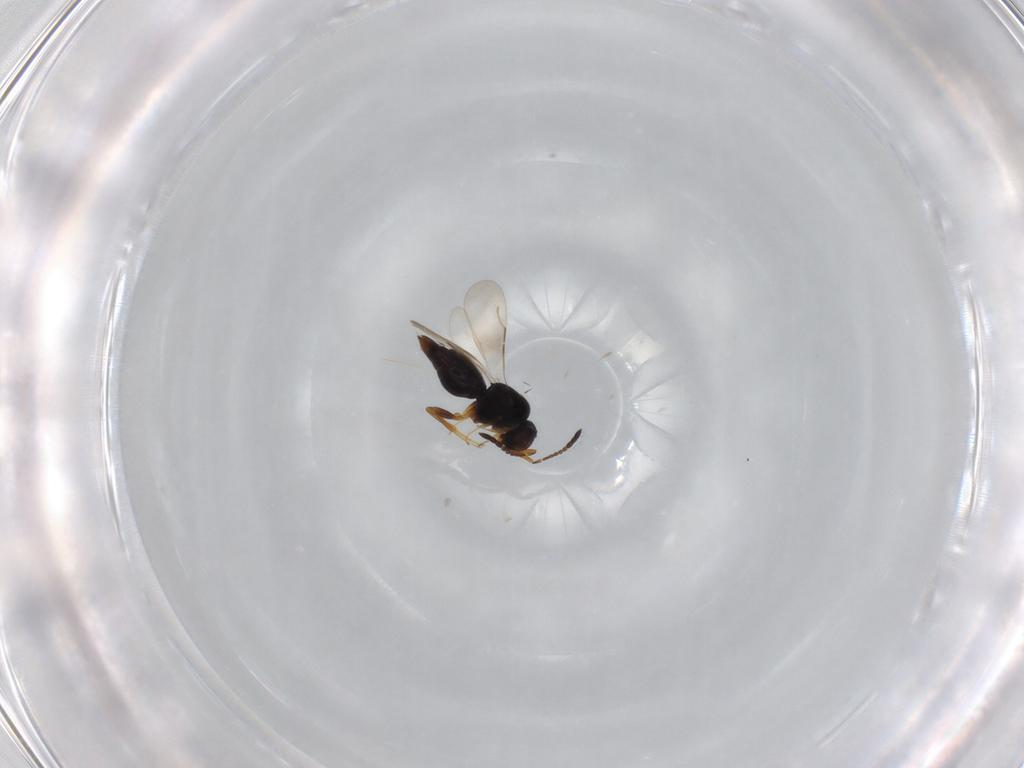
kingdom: Animalia
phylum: Arthropoda
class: Insecta
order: Hymenoptera
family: Ceraphronidae
